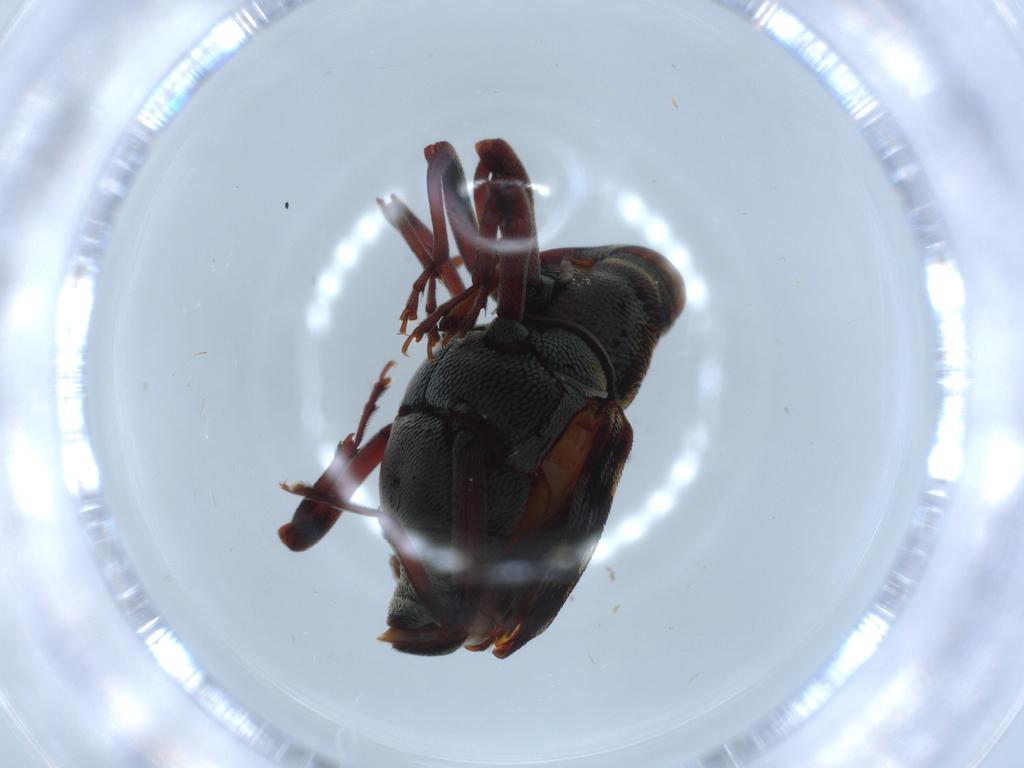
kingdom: Animalia
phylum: Arthropoda
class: Insecta
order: Coleoptera
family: Curculionidae
